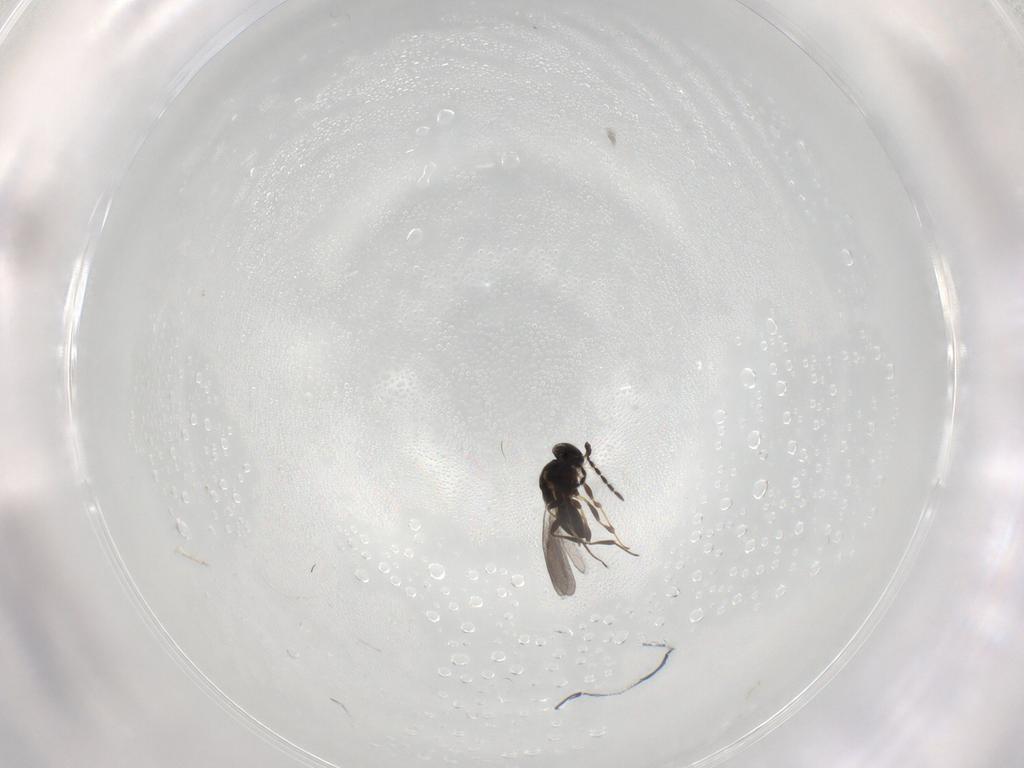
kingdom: Animalia
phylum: Arthropoda
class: Insecta
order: Hymenoptera
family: Platygastridae
